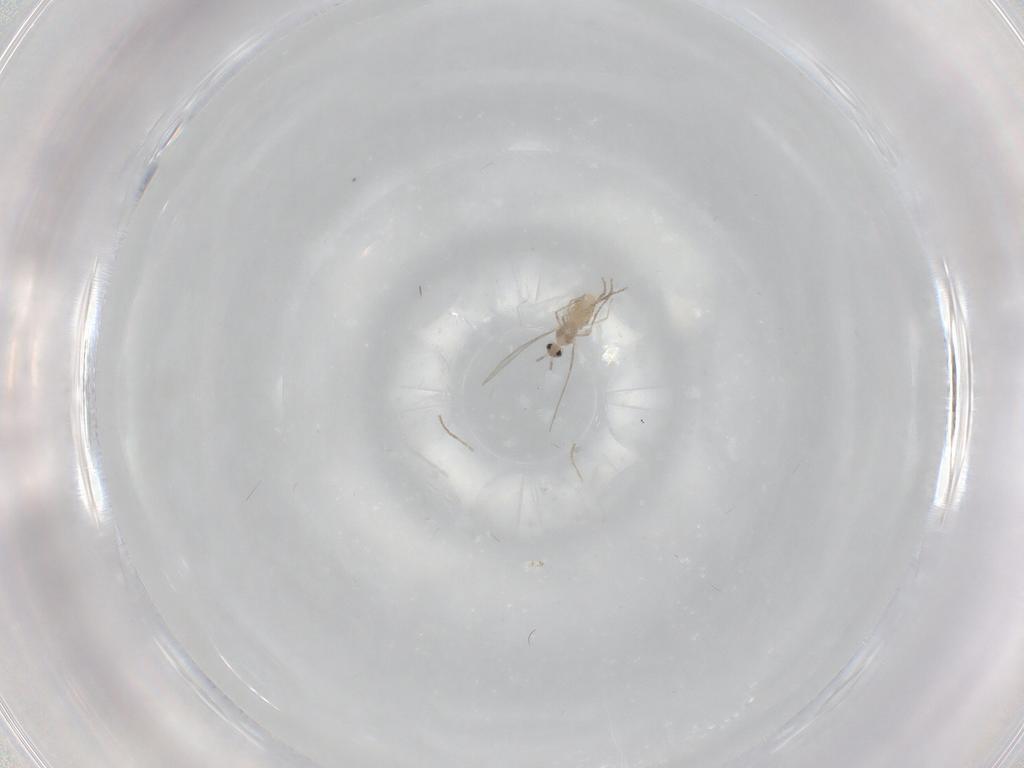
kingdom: Animalia
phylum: Arthropoda
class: Insecta
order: Diptera
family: Cecidomyiidae
